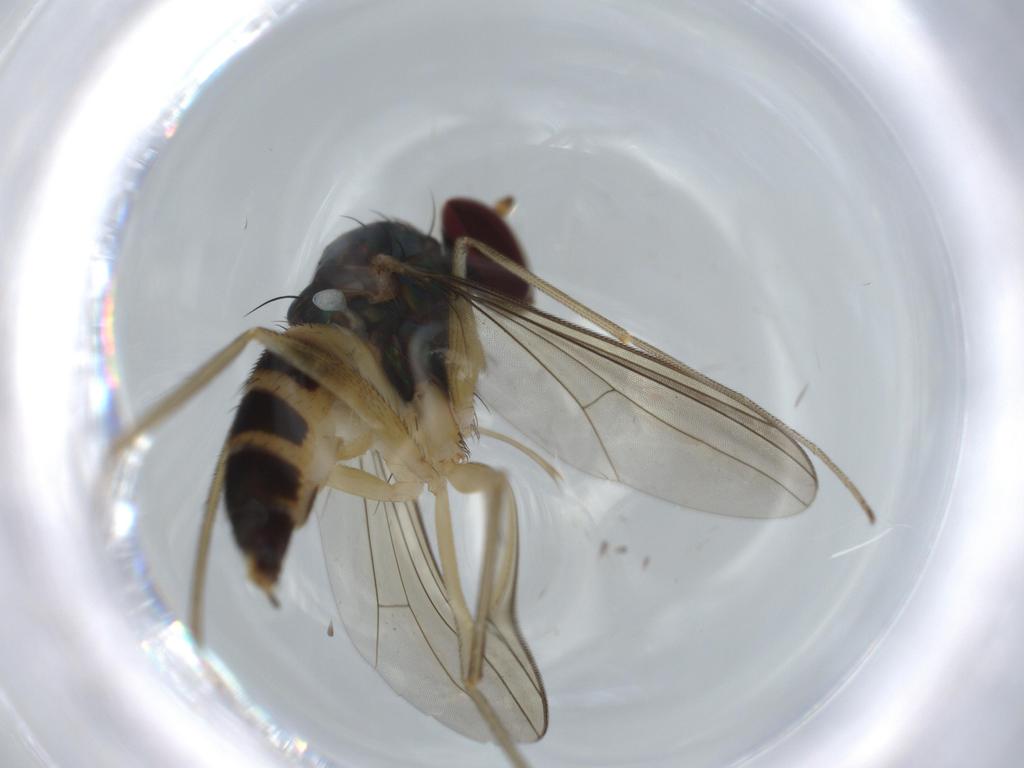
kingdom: Animalia
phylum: Arthropoda
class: Insecta
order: Diptera
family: Dolichopodidae
